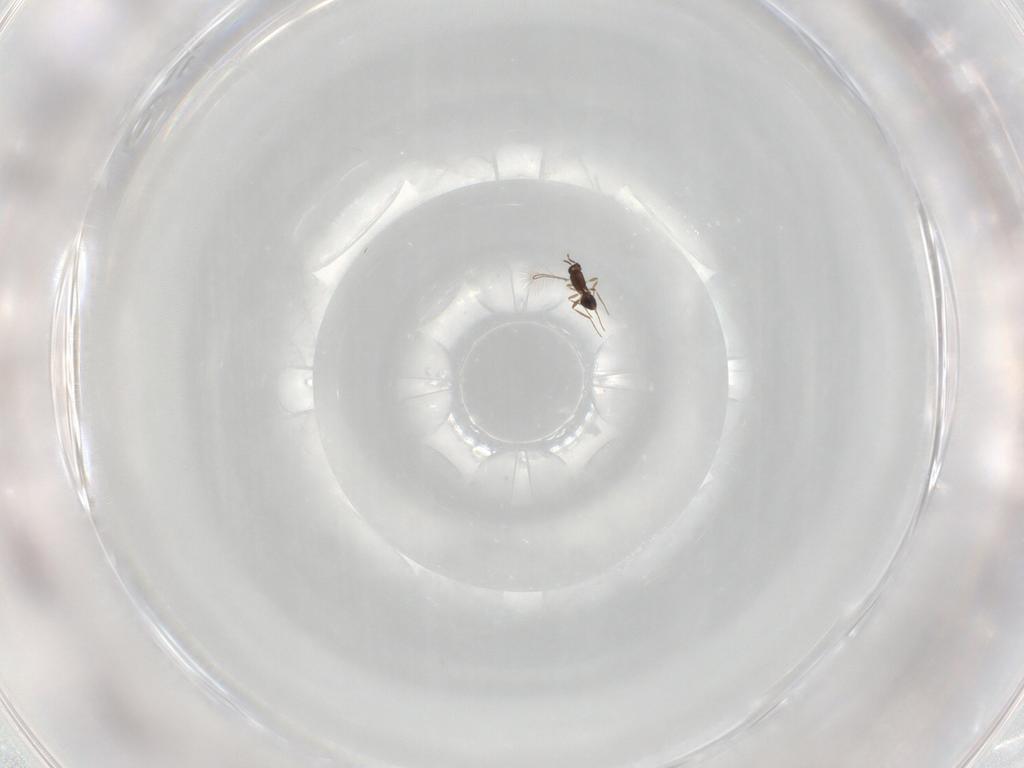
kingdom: Animalia
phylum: Arthropoda
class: Insecta
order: Hymenoptera
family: Mymaridae
